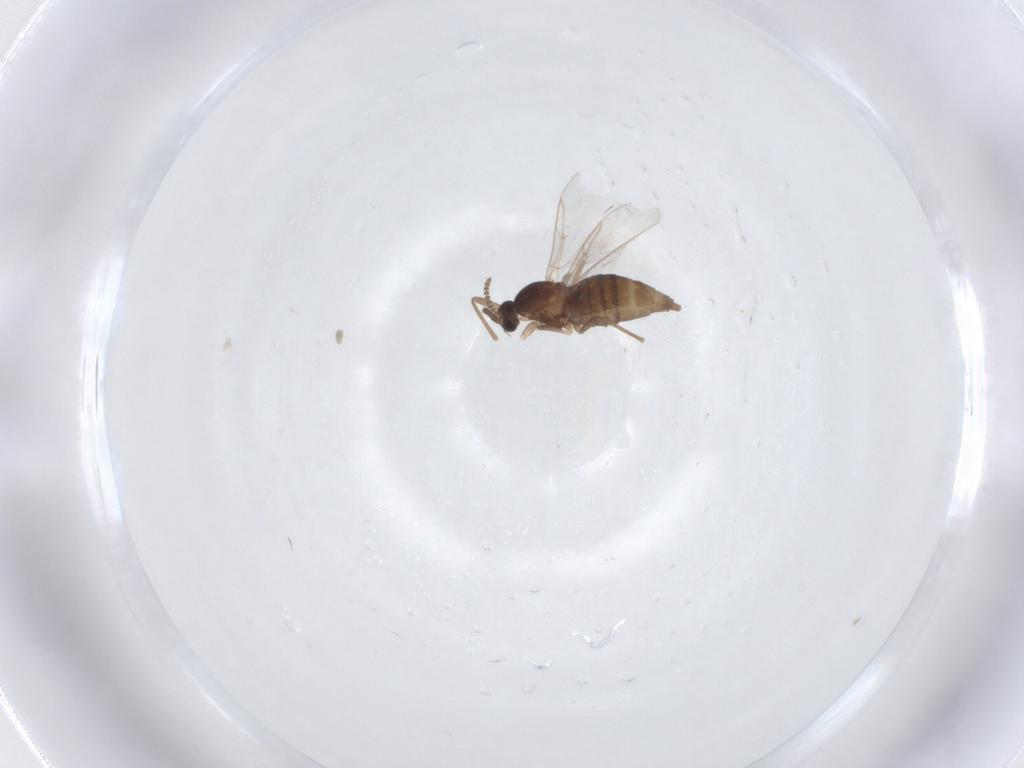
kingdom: Animalia
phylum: Arthropoda
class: Insecta
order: Diptera
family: Cecidomyiidae
